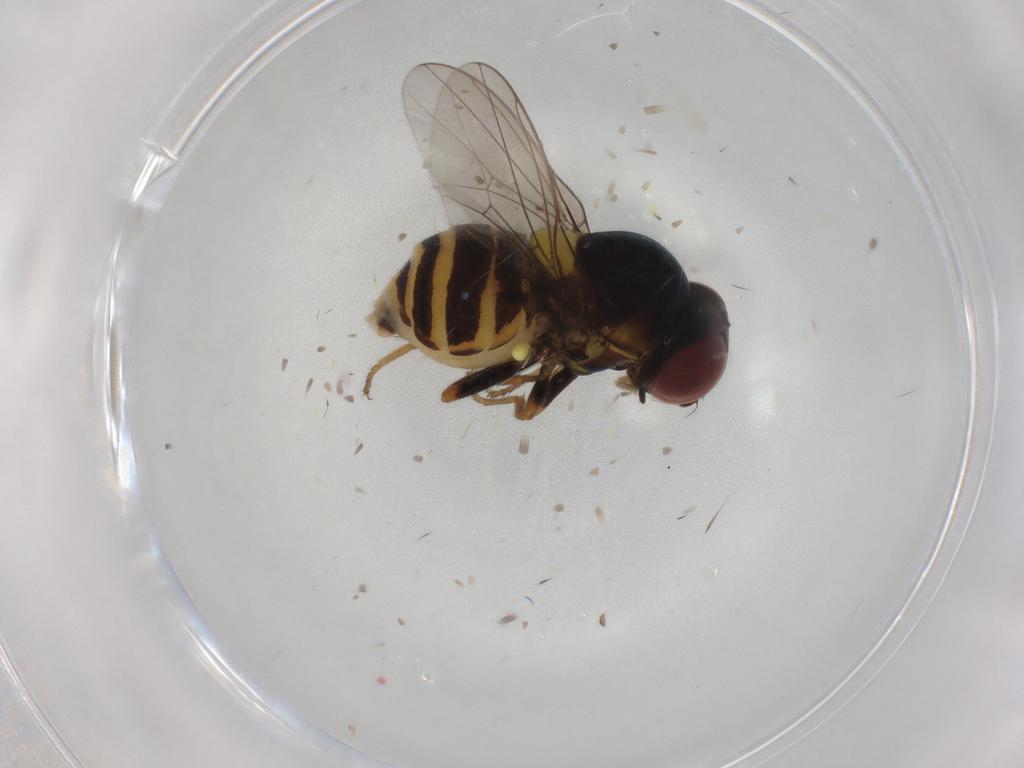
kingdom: Animalia
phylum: Arthropoda
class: Insecta
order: Diptera
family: Chloropidae
